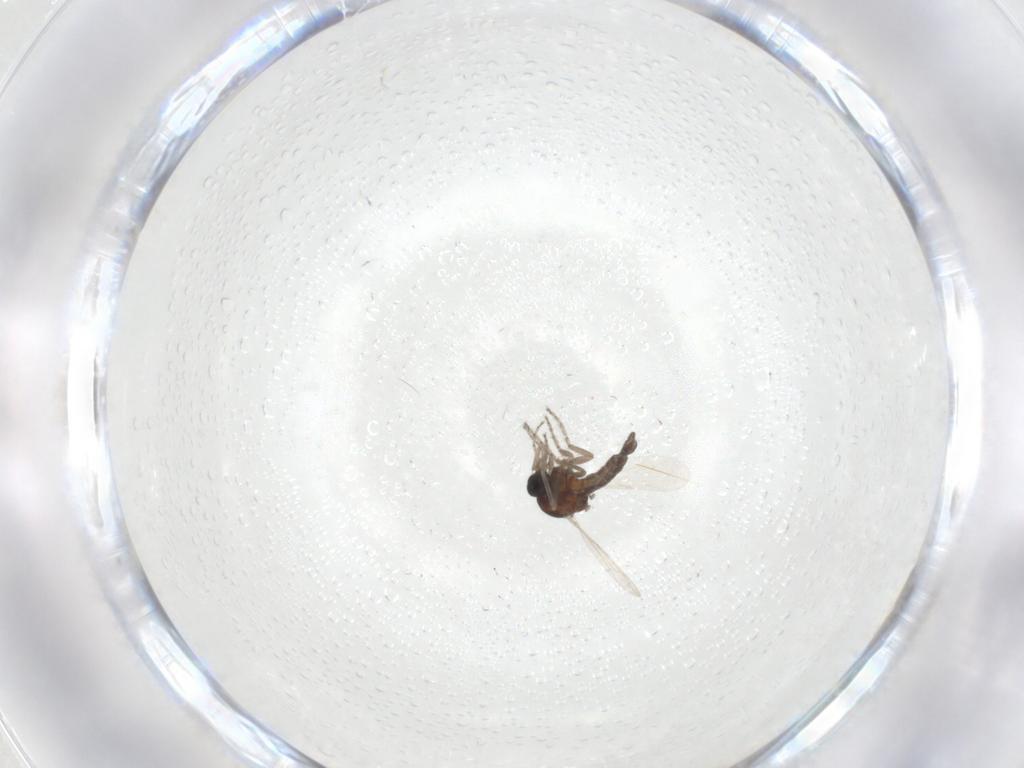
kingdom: Animalia
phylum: Arthropoda
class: Insecta
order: Diptera
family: Ceratopogonidae
